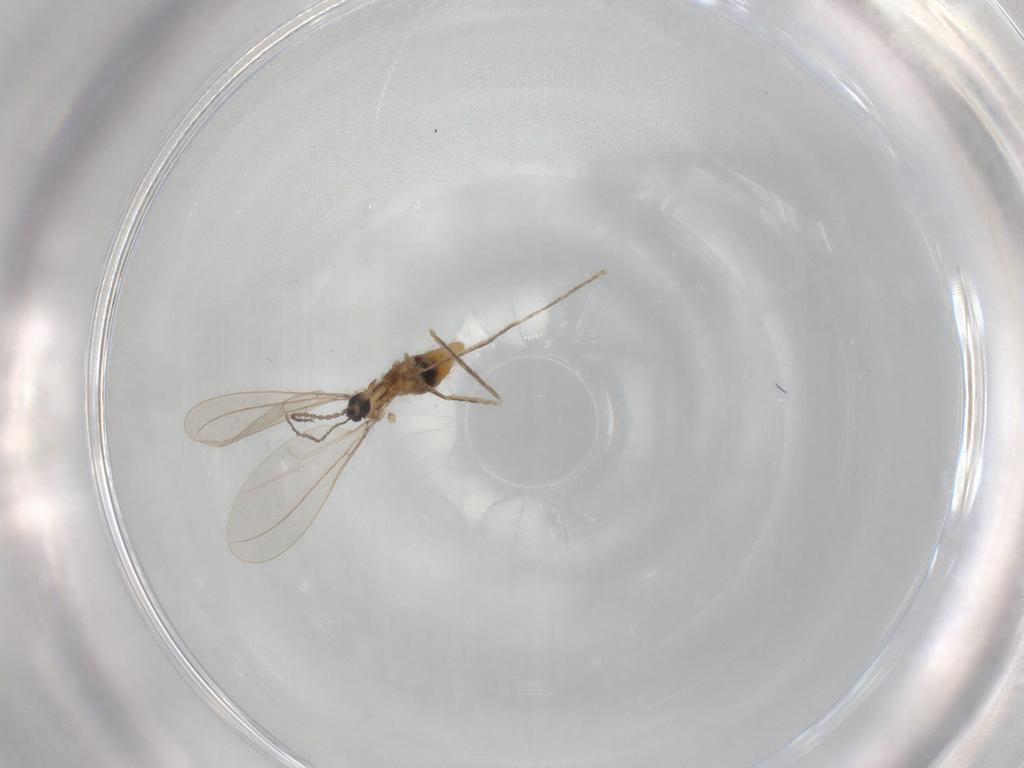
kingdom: Animalia
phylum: Arthropoda
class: Insecta
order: Diptera
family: Cecidomyiidae
